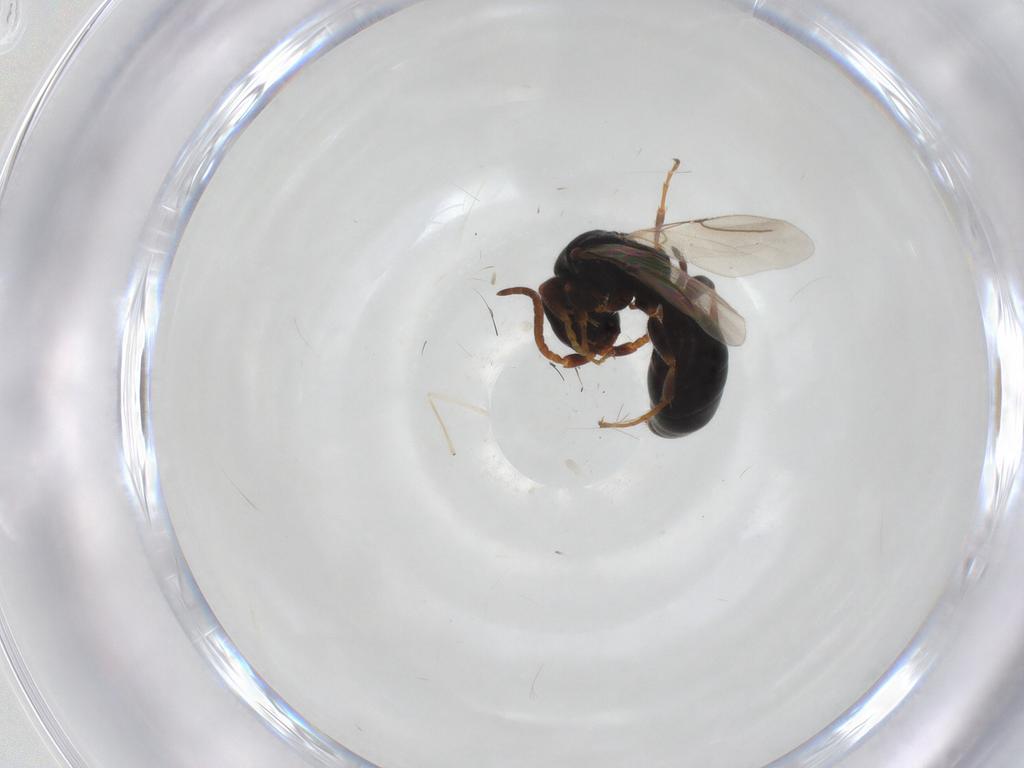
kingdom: Animalia
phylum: Arthropoda
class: Insecta
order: Hymenoptera
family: Bethylidae
